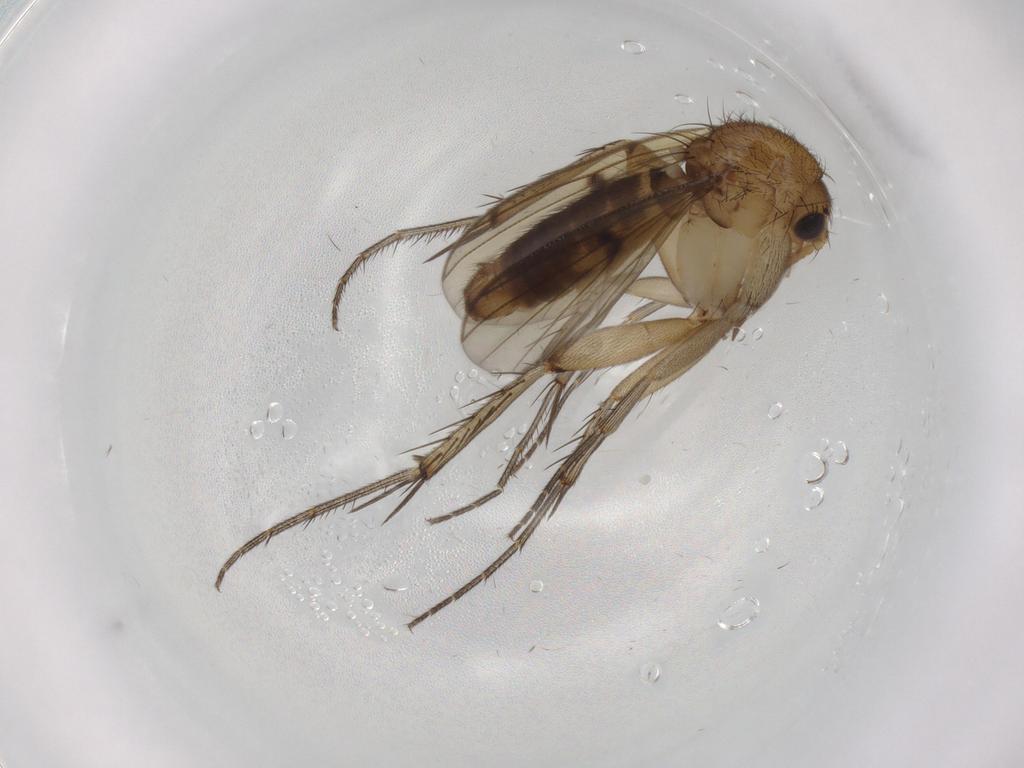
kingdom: Animalia
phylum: Arthropoda
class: Insecta
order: Diptera
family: Mycetophilidae
